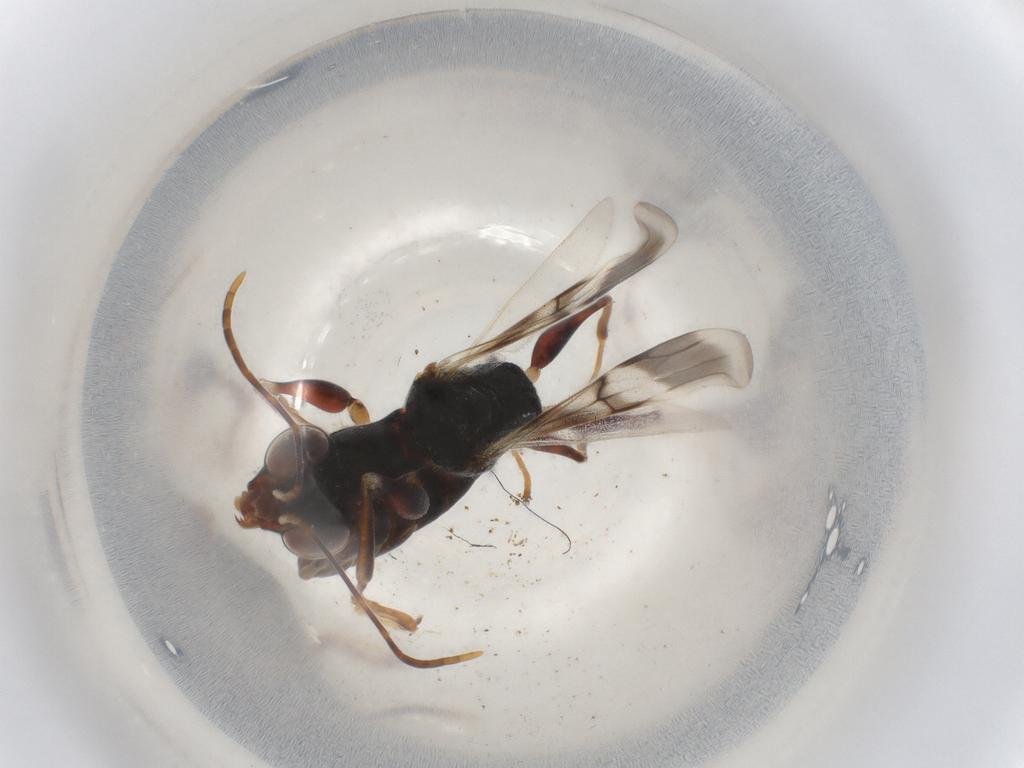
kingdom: Animalia
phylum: Arthropoda
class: Insecta
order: Hymenoptera
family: Dryinidae
